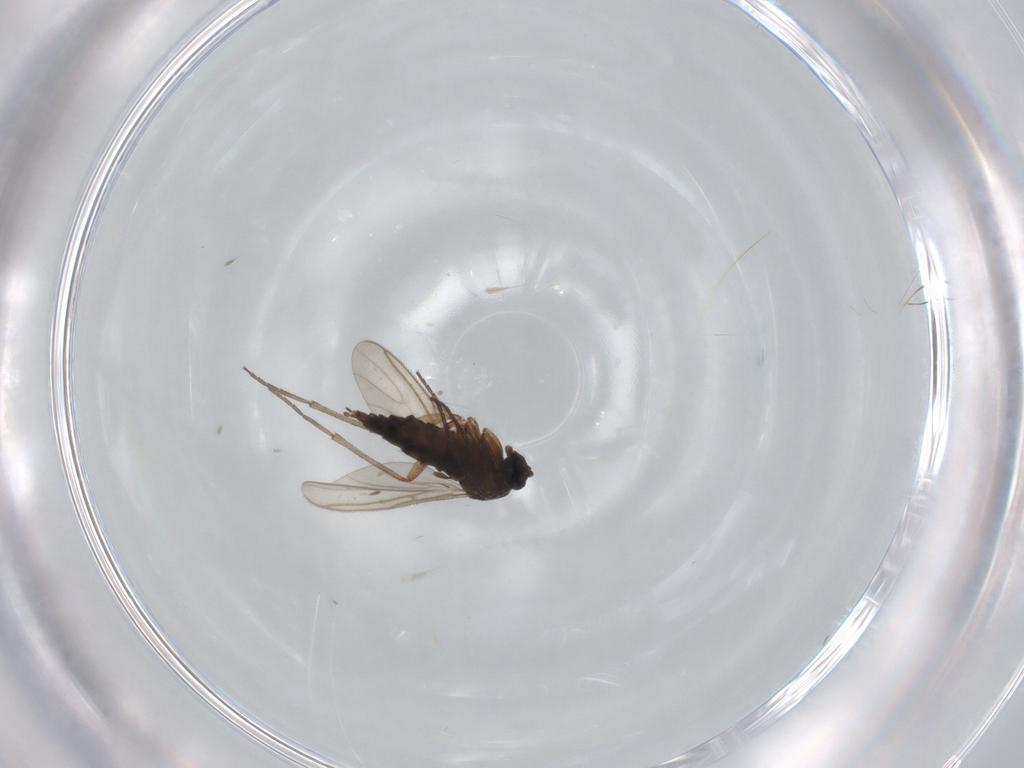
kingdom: Animalia
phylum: Arthropoda
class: Insecta
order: Diptera
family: Sciaridae
